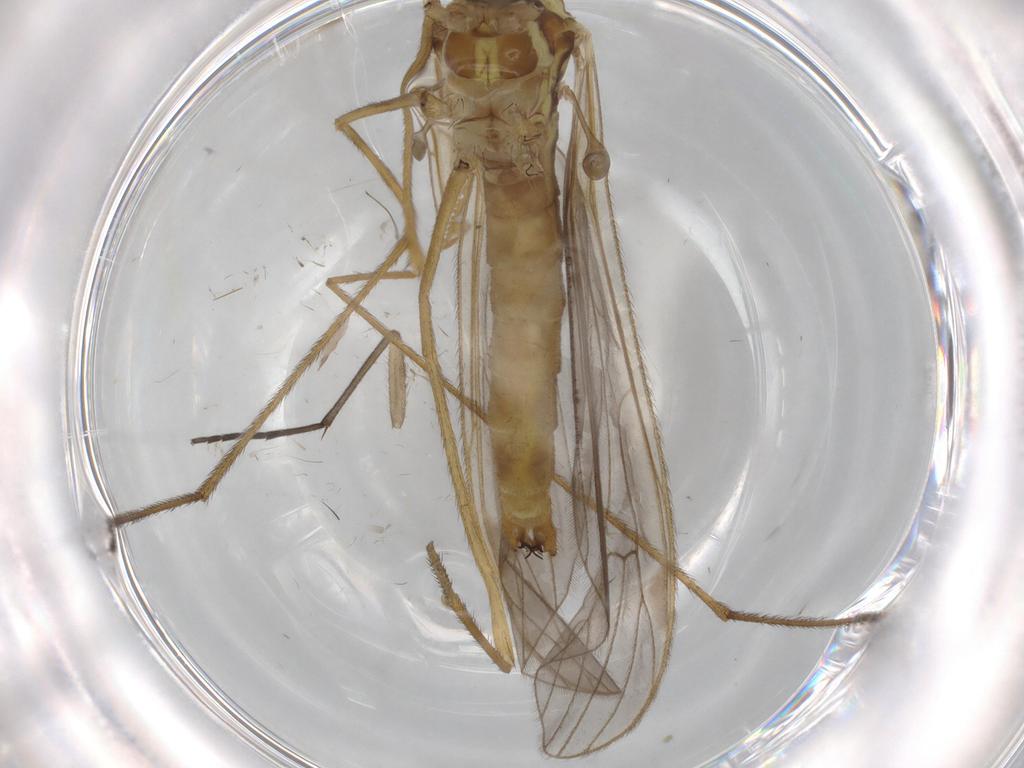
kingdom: Animalia
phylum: Arthropoda
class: Insecta
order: Diptera
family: Limoniidae
